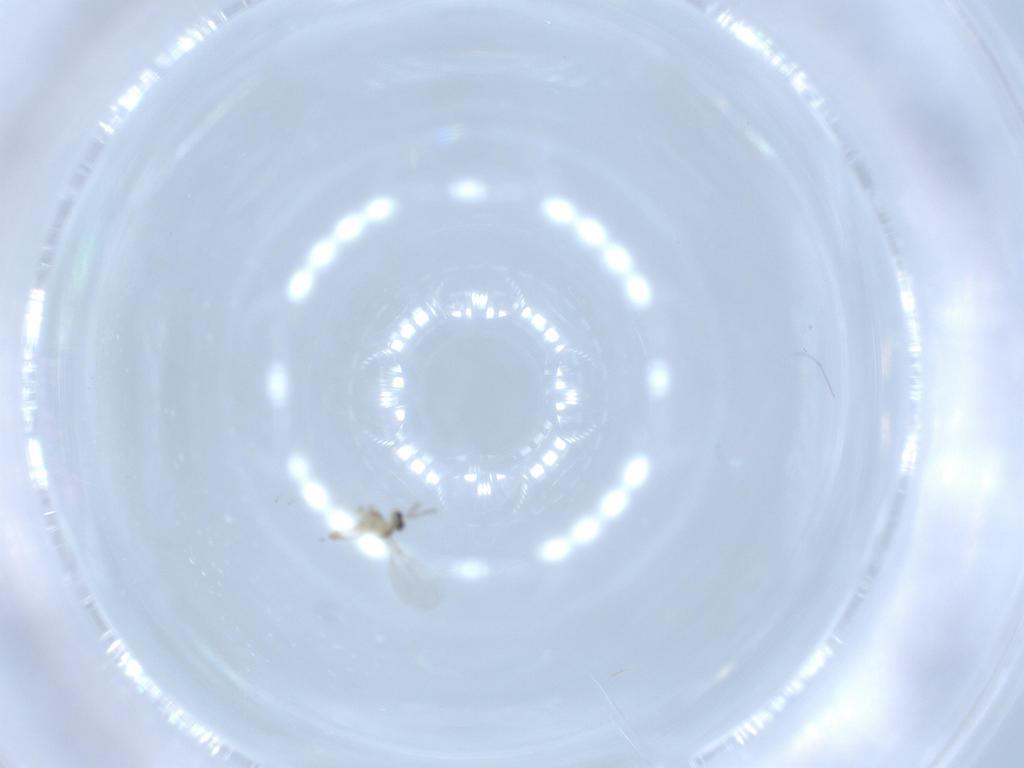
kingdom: Animalia
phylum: Arthropoda
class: Insecta
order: Diptera
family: Cecidomyiidae
